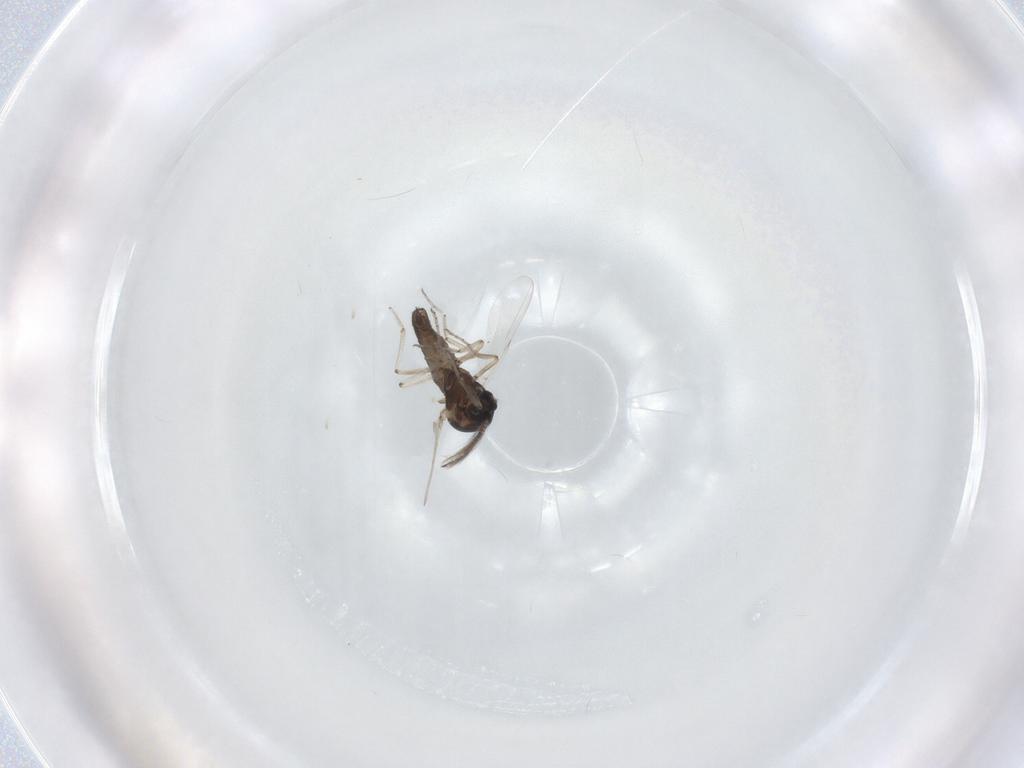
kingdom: Animalia
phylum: Arthropoda
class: Insecta
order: Diptera
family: Ceratopogonidae
